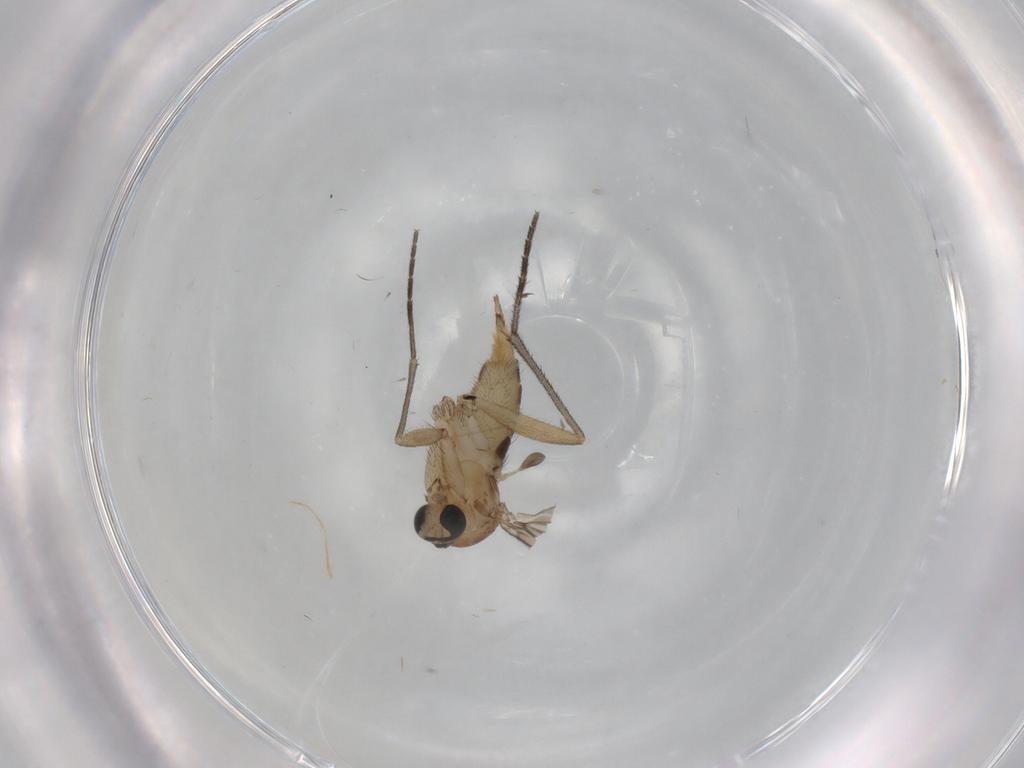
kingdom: Animalia
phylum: Arthropoda
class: Insecta
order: Diptera
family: Sciaridae
